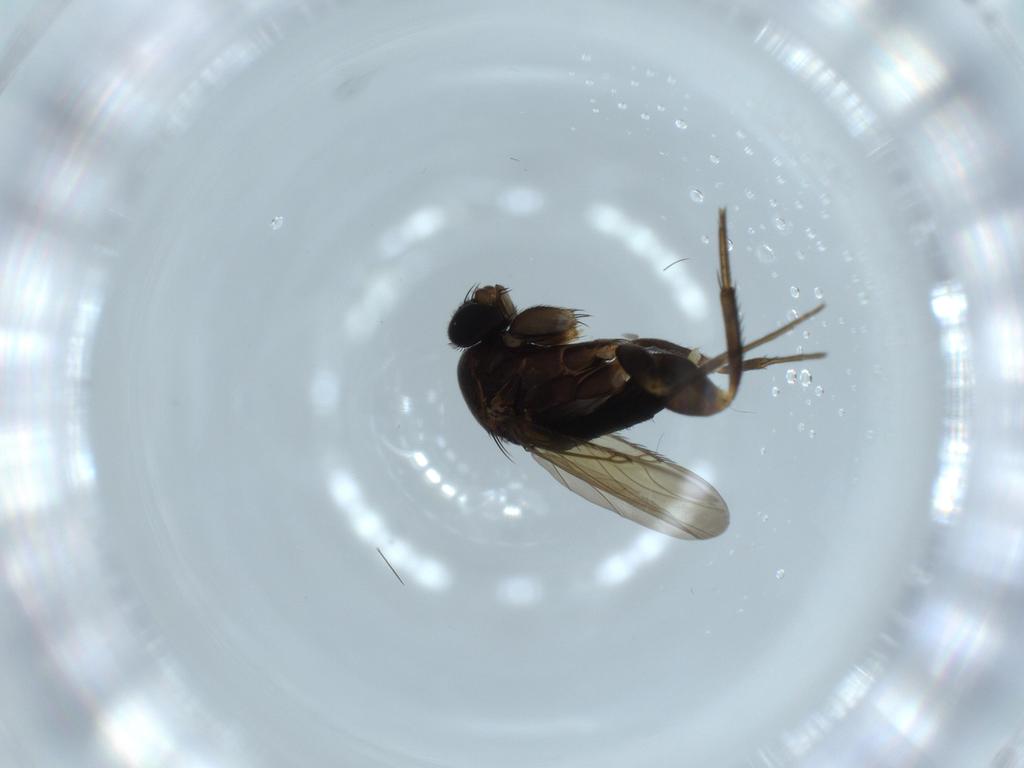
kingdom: Animalia
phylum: Arthropoda
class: Insecta
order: Diptera
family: Phoridae
